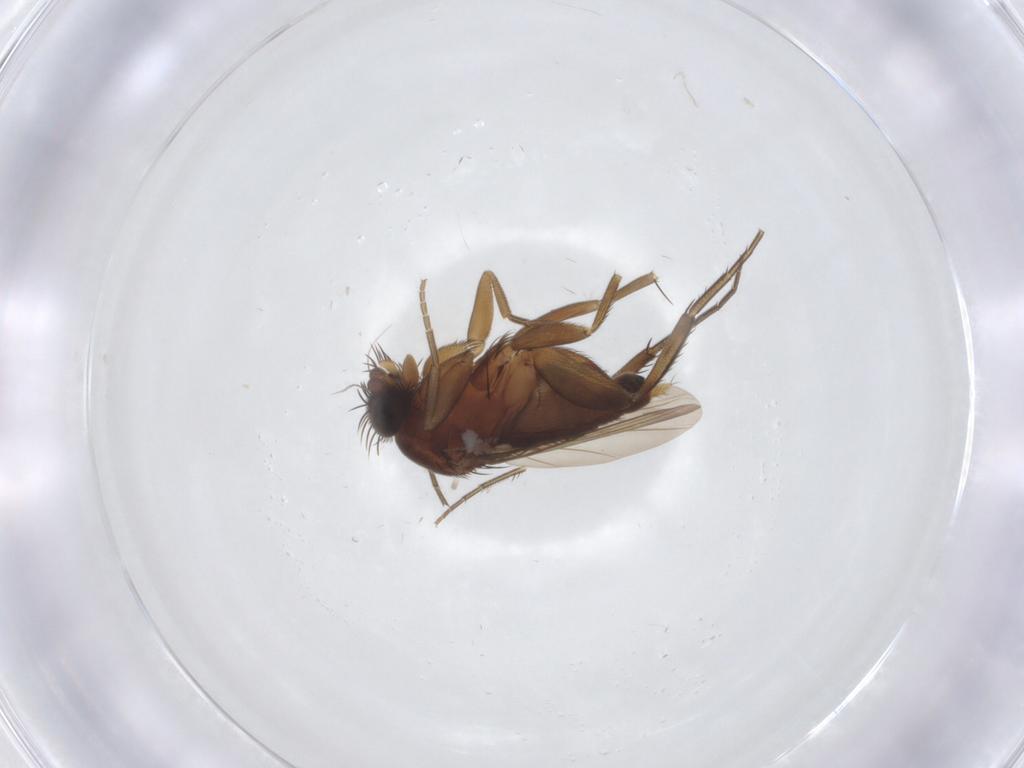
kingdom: Animalia
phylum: Arthropoda
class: Insecta
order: Diptera
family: Phoridae
